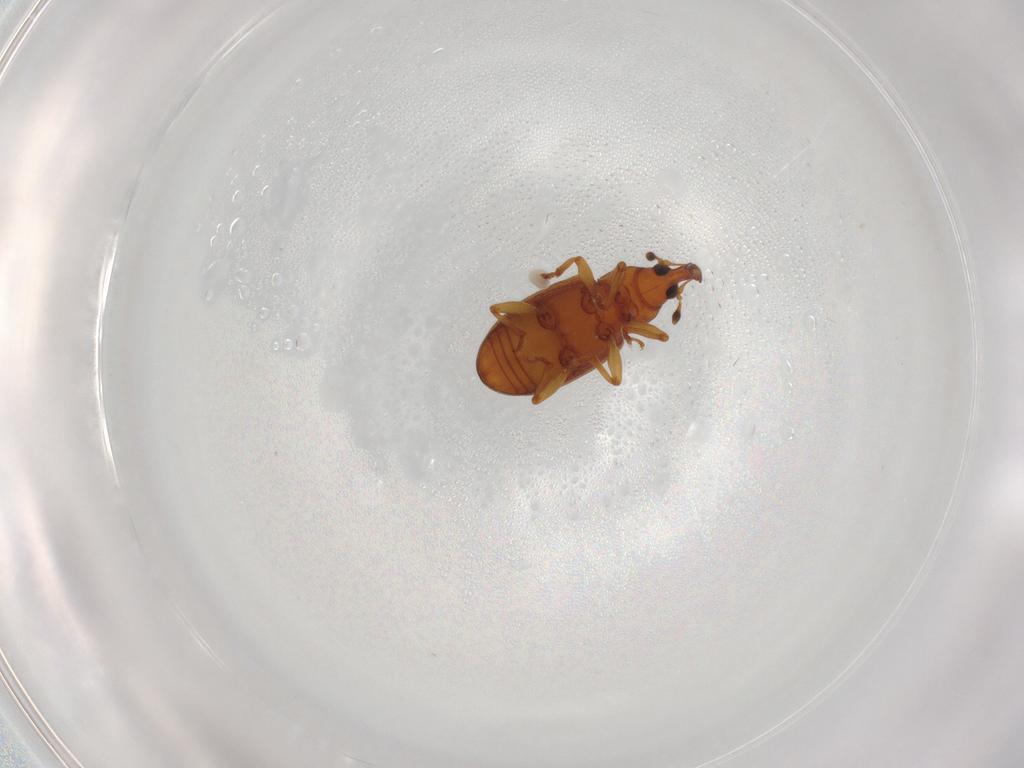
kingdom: Animalia
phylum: Arthropoda
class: Insecta
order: Coleoptera
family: Curculionidae
